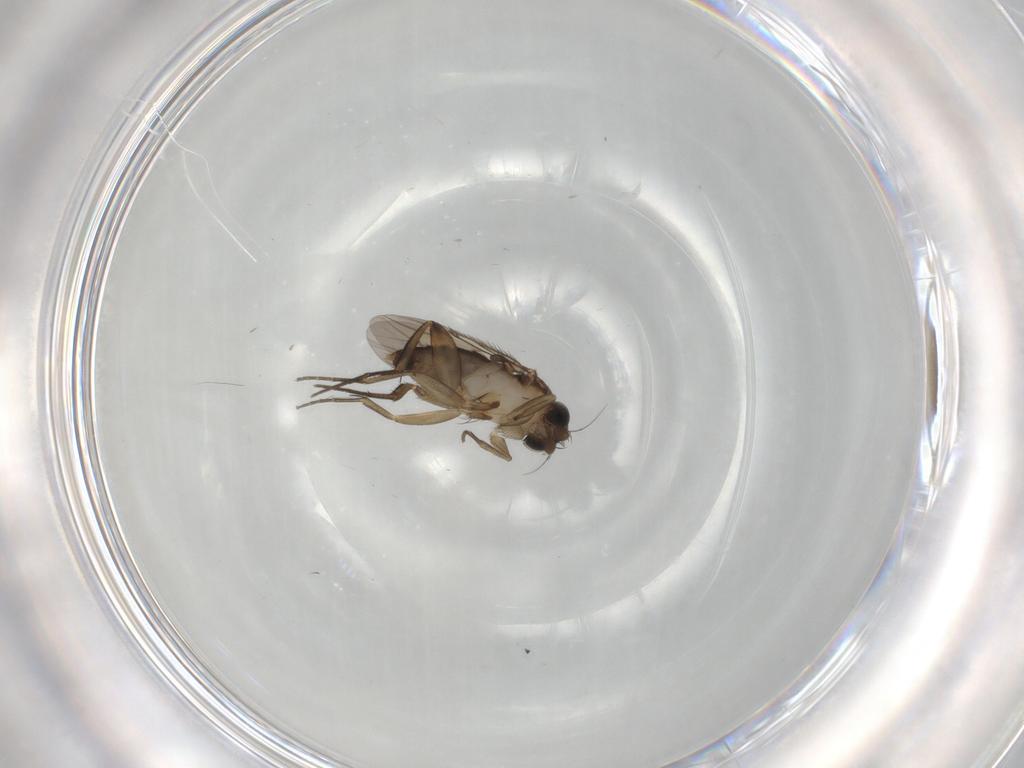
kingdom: Animalia
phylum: Arthropoda
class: Insecta
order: Diptera
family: Phoridae
